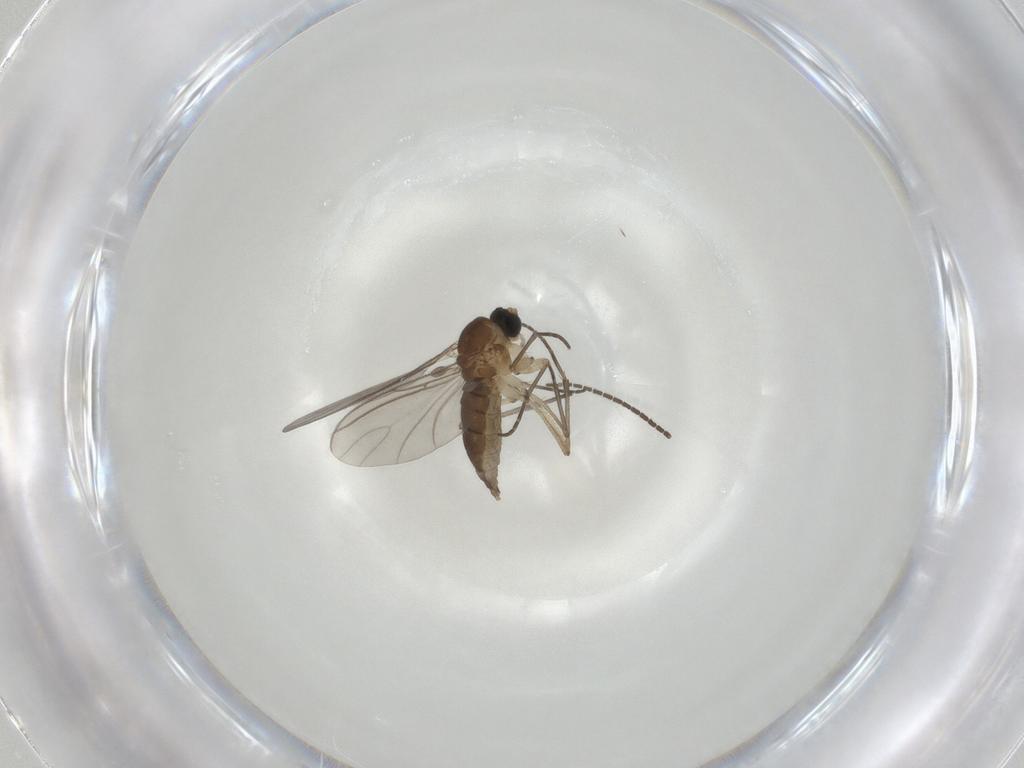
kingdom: Animalia
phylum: Arthropoda
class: Insecta
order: Diptera
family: Sciaridae
